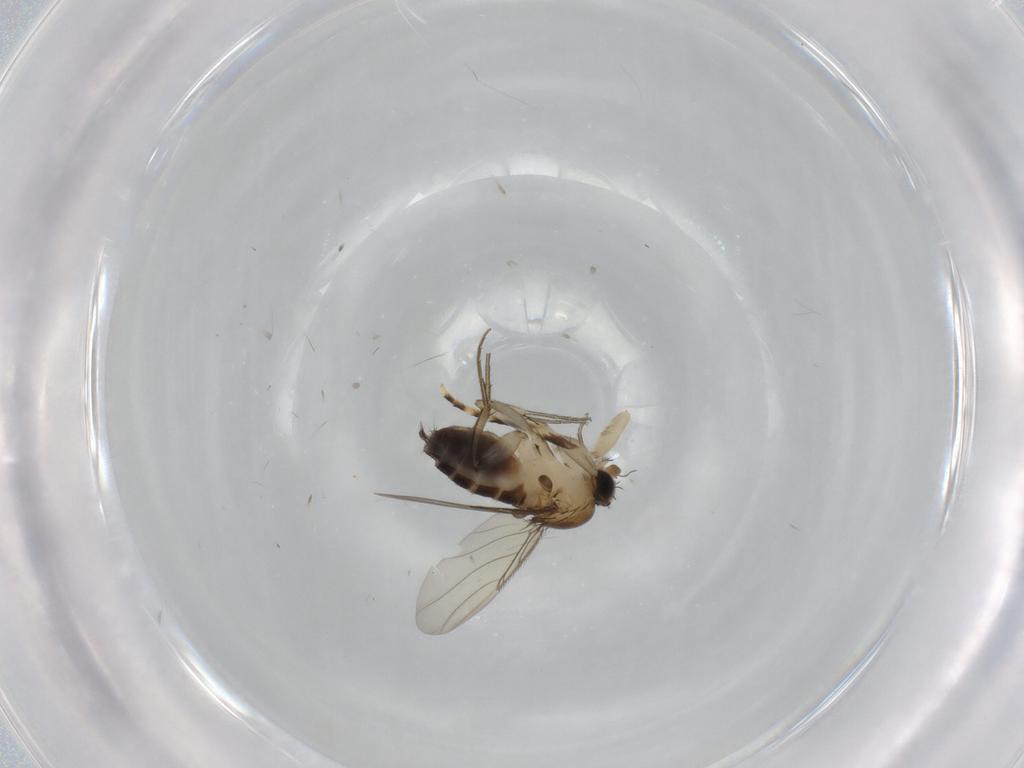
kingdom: Animalia
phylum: Arthropoda
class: Insecta
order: Diptera
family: Phoridae
